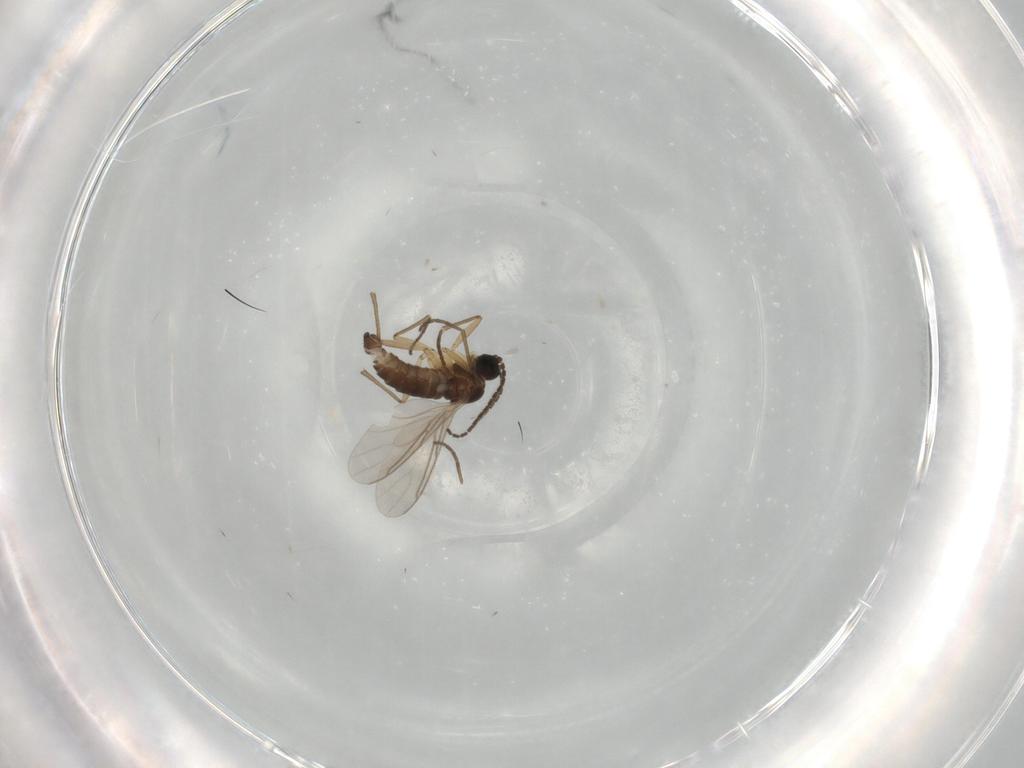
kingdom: Animalia
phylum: Arthropoda
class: Insecta
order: Diptera
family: Sciaridae
